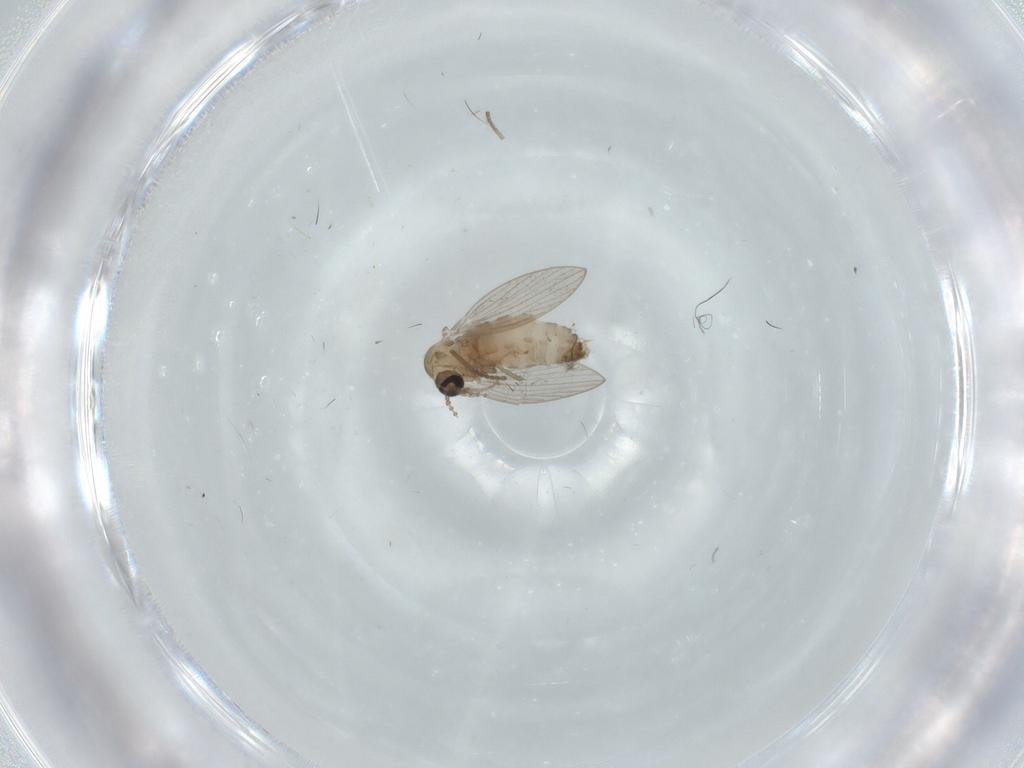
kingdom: Animalia
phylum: Arthropoda
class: Insecta
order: Diptera
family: Psychodidae
